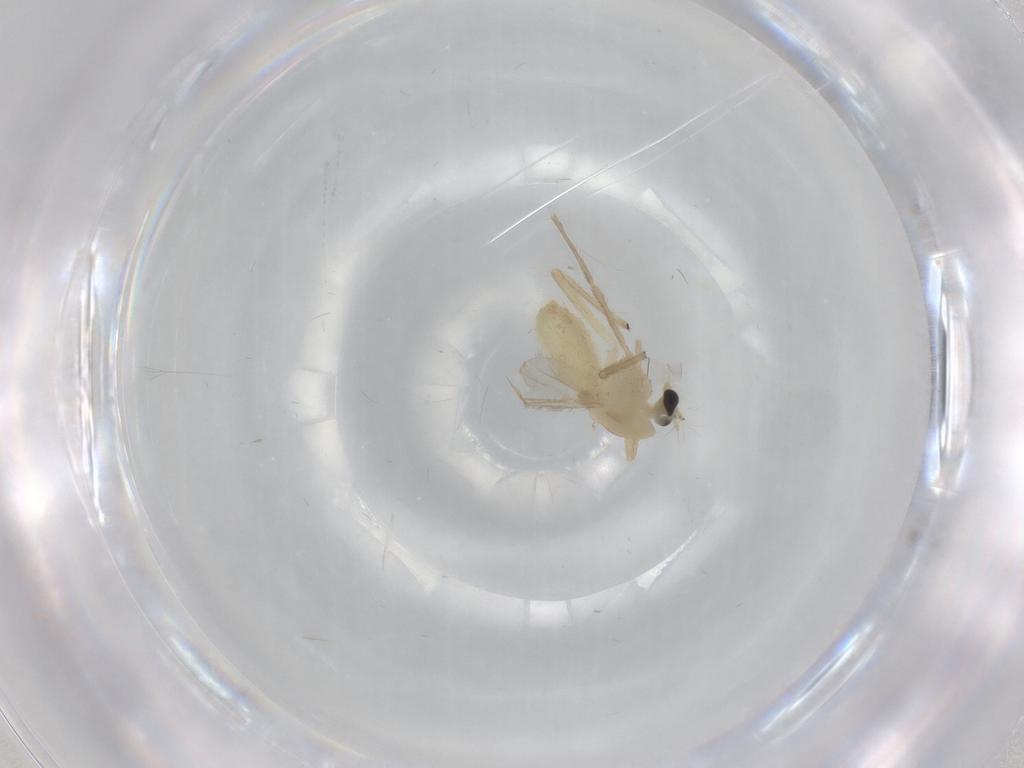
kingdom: Animalia
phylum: Arthropoda
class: Insecta
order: Diptera
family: Chironomidae
